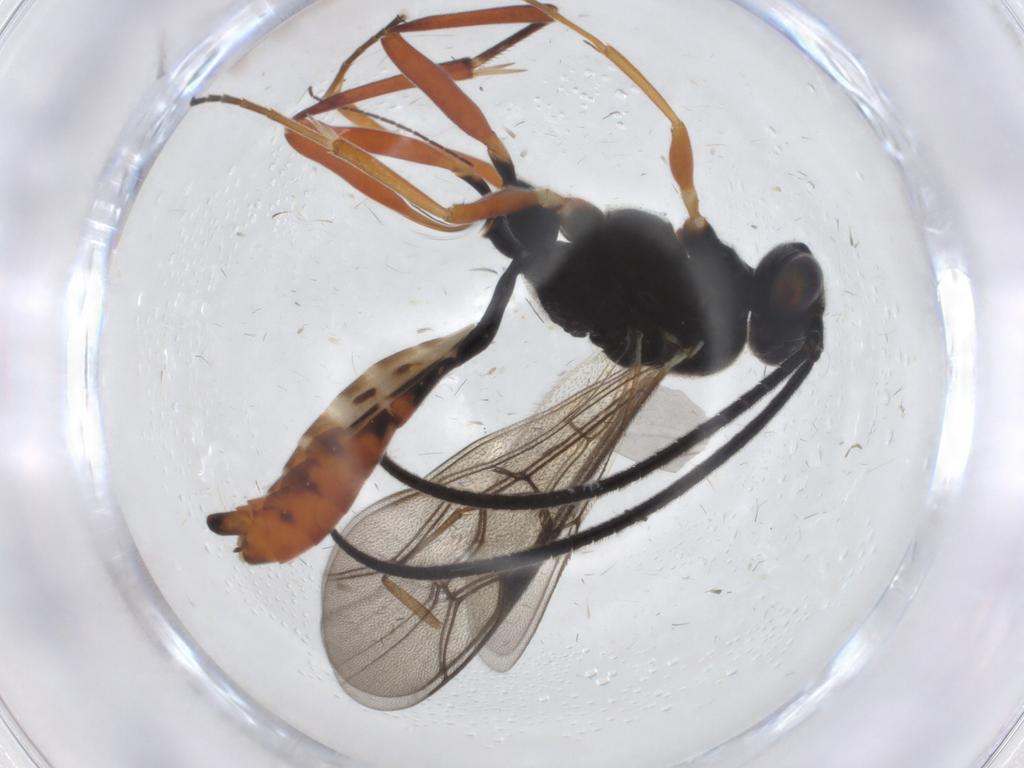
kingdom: Animalia
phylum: Arthropoda
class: Insecta
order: Hymenoptera
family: Ichneumonidae
